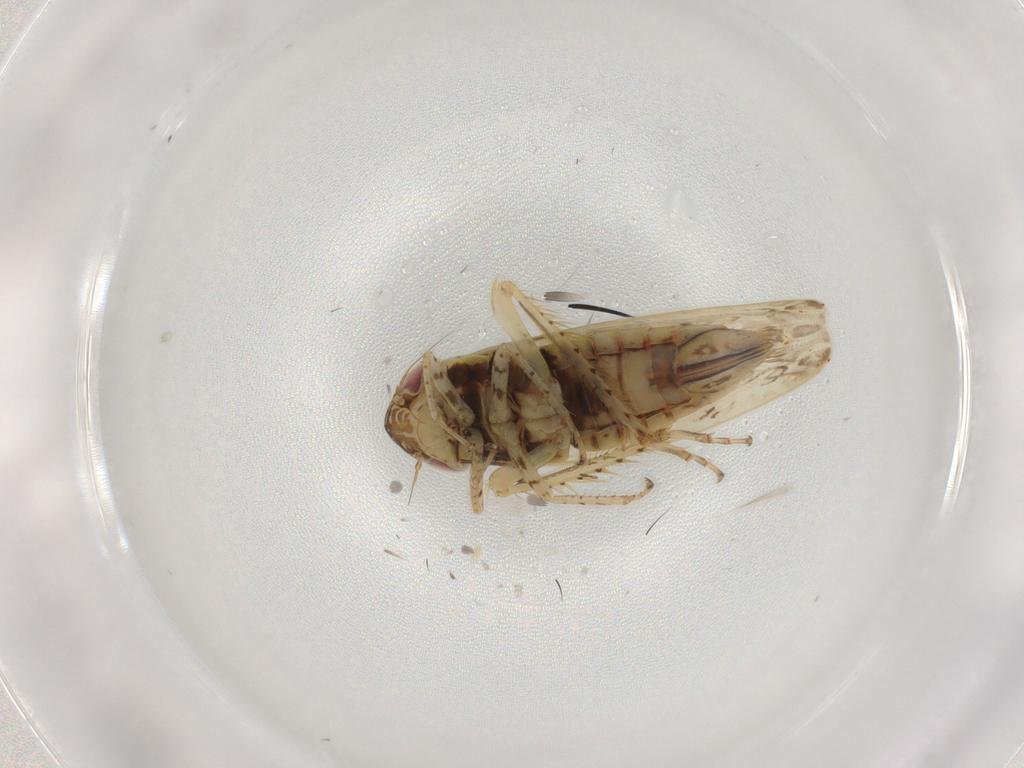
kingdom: Animalia
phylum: Arthropoda
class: Insecta
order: Hemiptera
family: Cicadellidae
